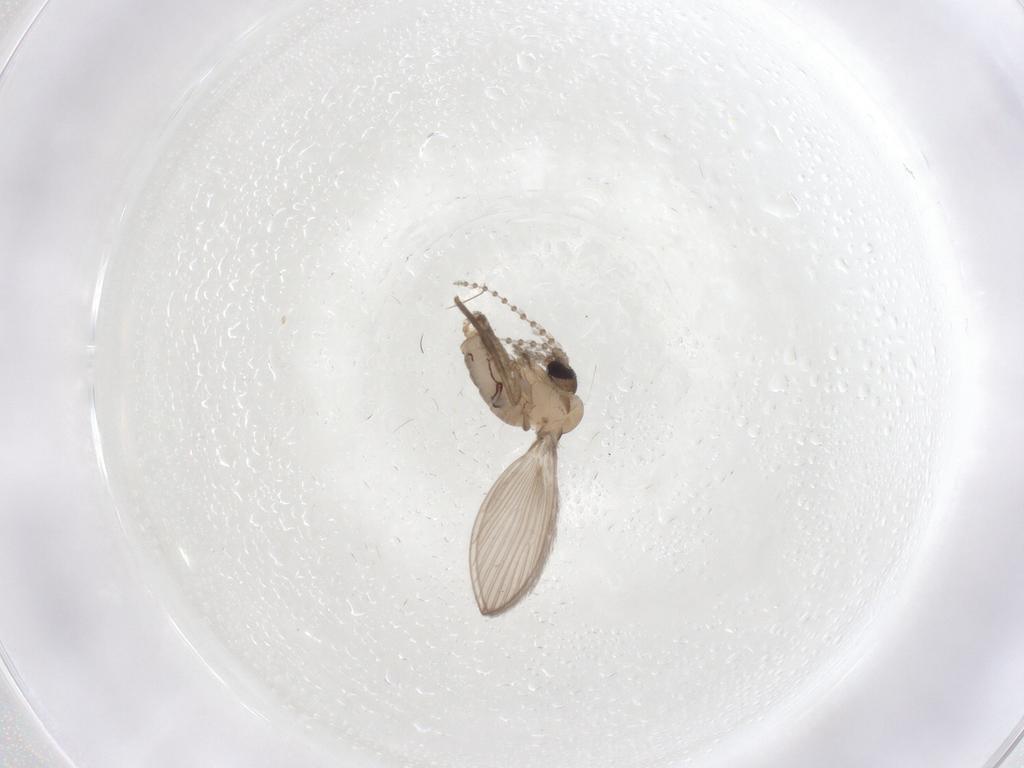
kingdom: Animalia
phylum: Arthropoda
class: Insecta
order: Diptera
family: Psychodidae
